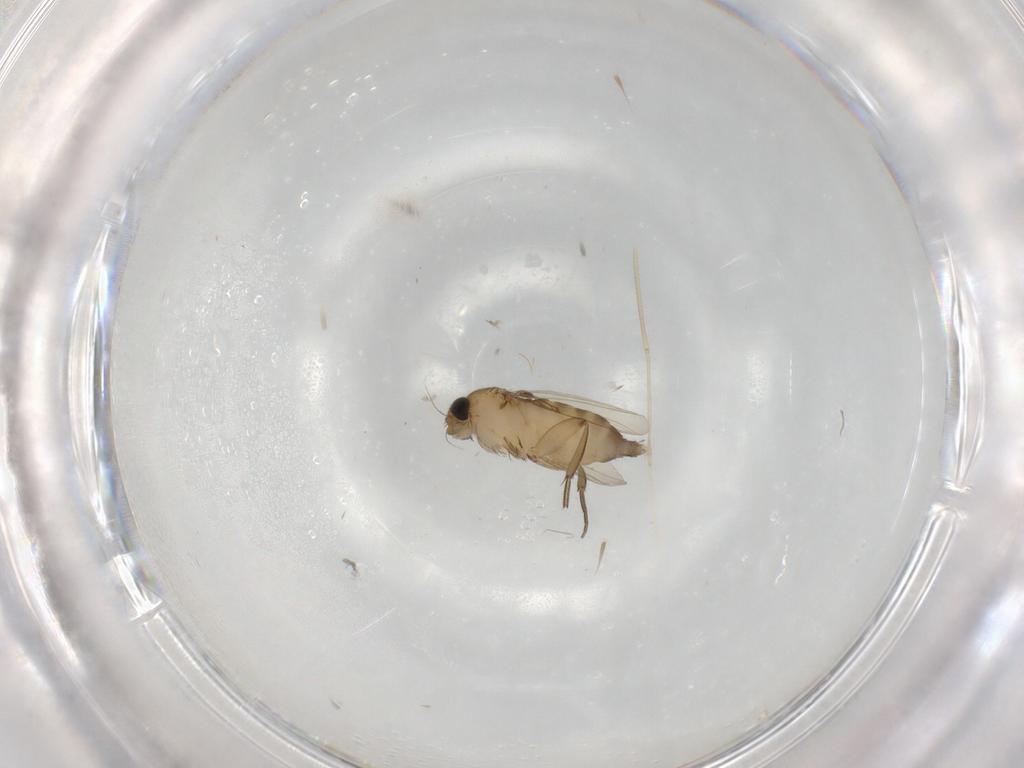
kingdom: Animalia
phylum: Arthropoda
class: Insecta
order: Diptera
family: Phoridae
